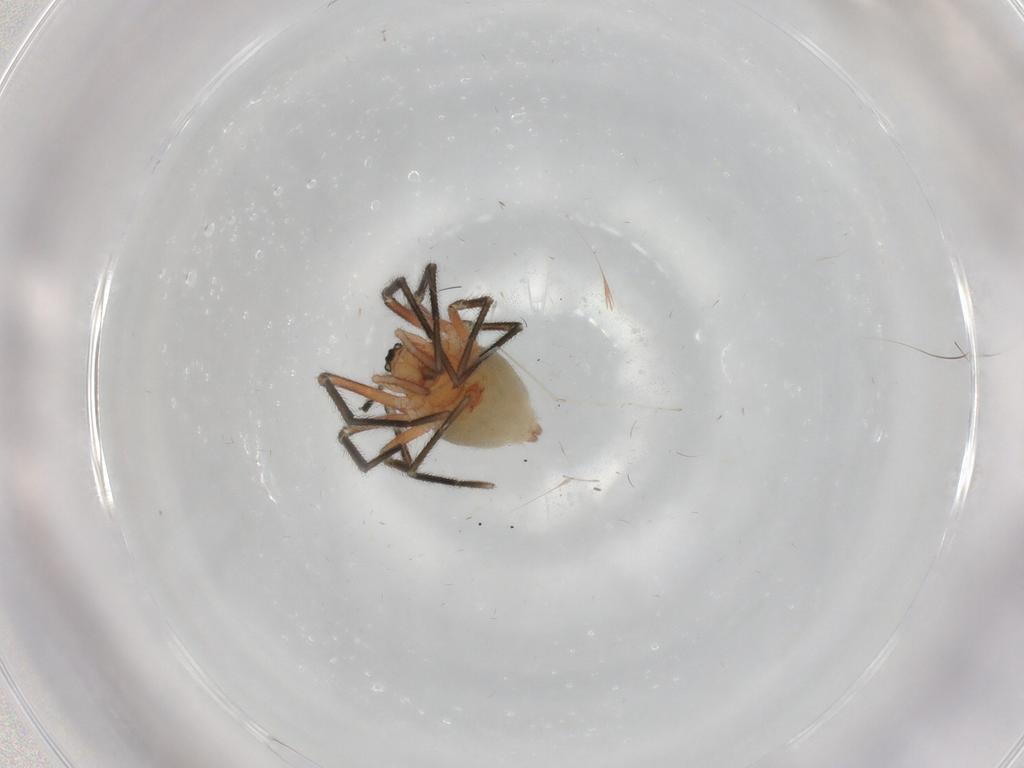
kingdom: Animalia
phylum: Arthropoda
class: Arachnida
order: Araneae
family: Linyphiidae
